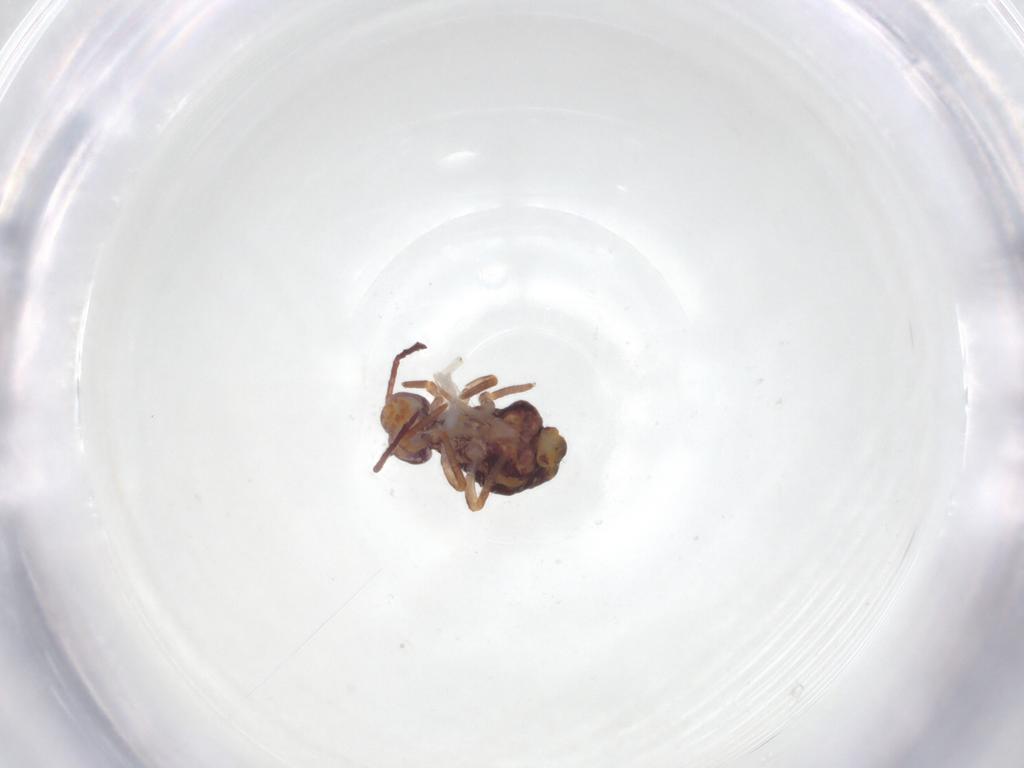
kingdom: Animalia
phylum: Arthropoda
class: Collembola
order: Symphypleona
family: Dicyrtomidae
